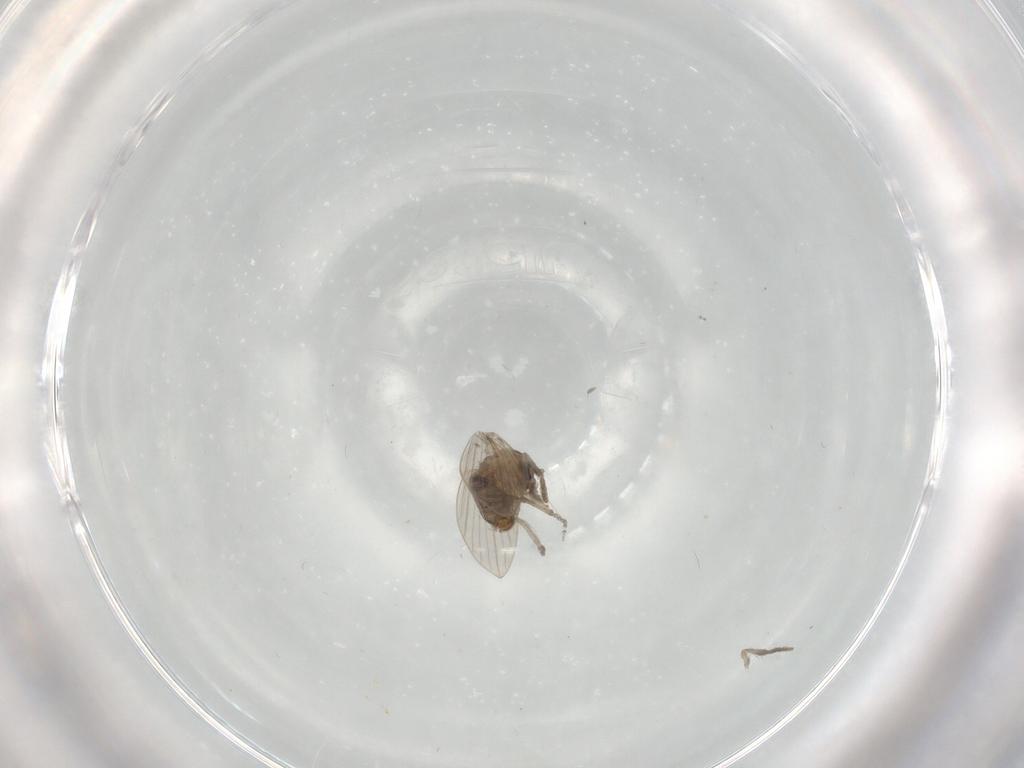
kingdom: Animalia
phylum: Arthropoda
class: Insecta
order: Diptera
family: Psychodidae
